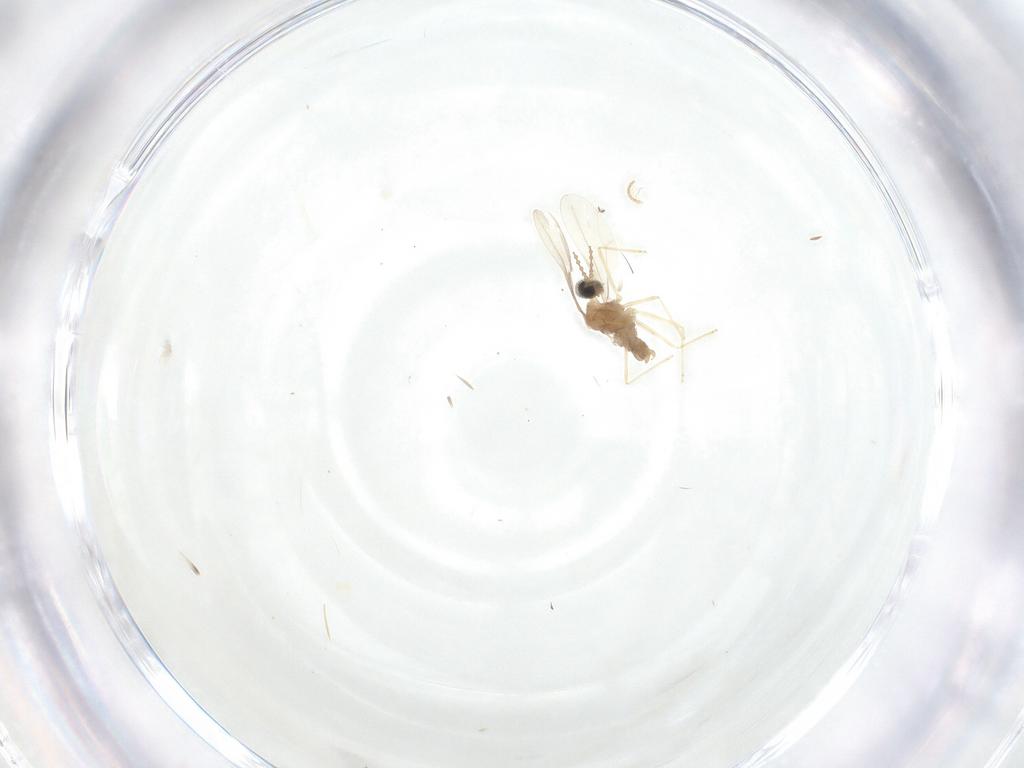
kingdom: Animalia
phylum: Arthropoda
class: Insecta
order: Diptera
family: Cecidomyiidae
